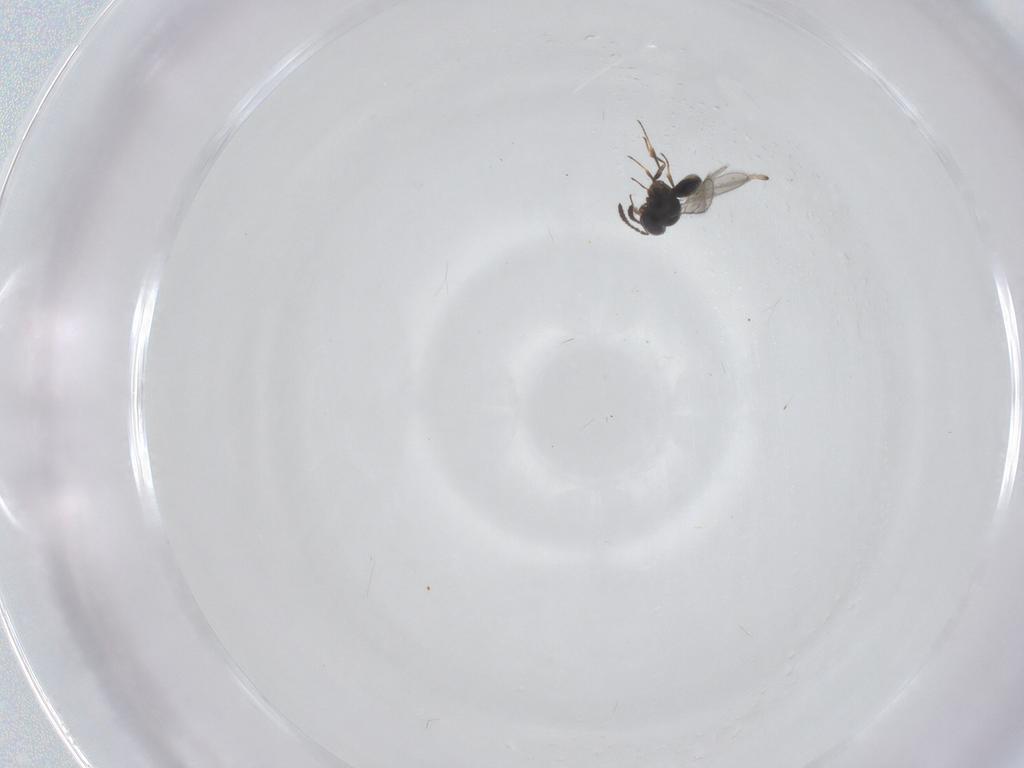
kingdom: Animalia
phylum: Arthropoda
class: Insecta
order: Hymenoptera
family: Scelionidae
